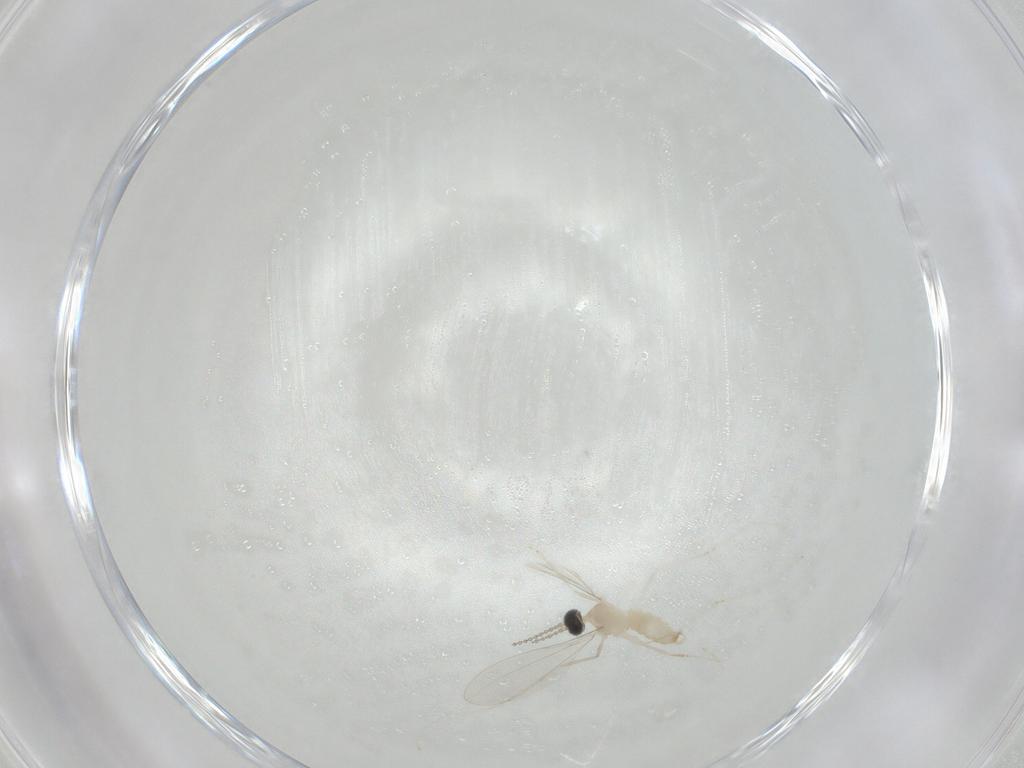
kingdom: Animalia
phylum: Arthropoda
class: Insecta
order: Diptera
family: Cecidomyiidae
